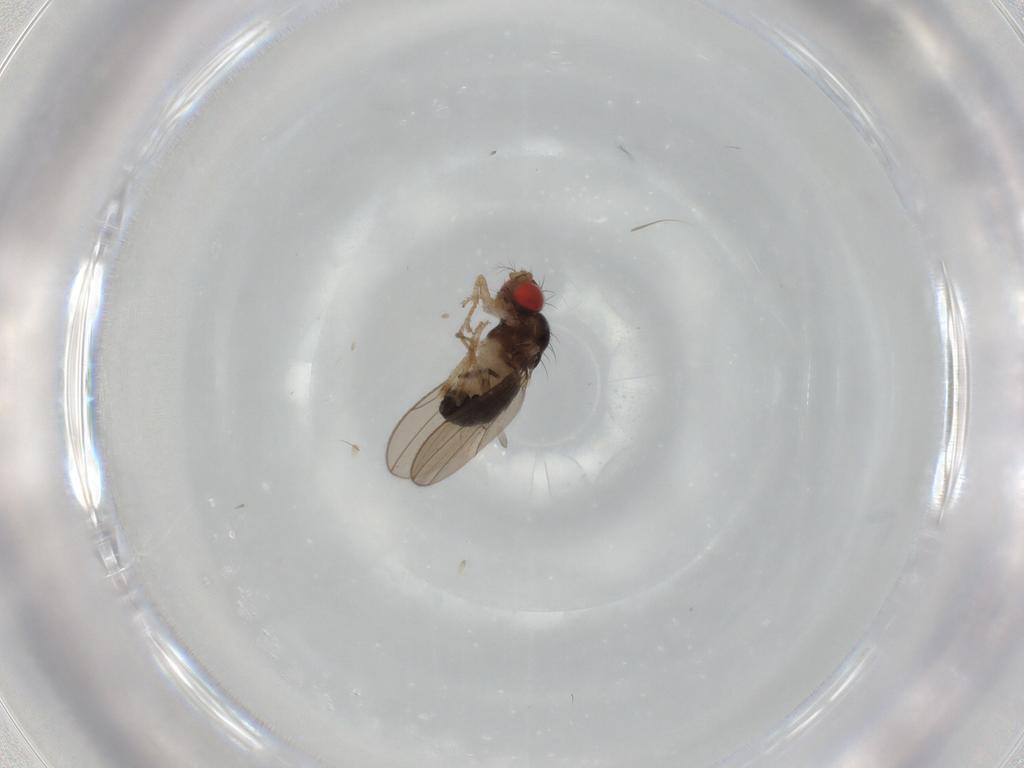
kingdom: Animalia
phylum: Arthropoda
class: Insecta
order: Diptera
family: Drosophilidae
